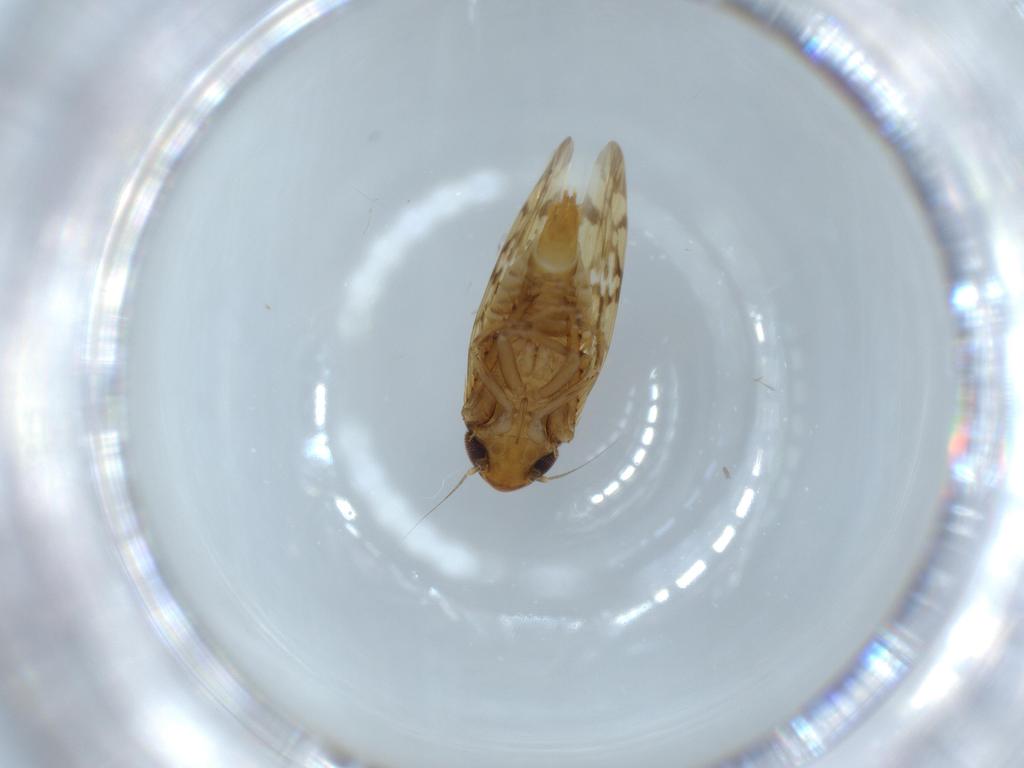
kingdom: Animalia
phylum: Arthropoda
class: Insecta
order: Hemiptera
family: Cicadellidae
